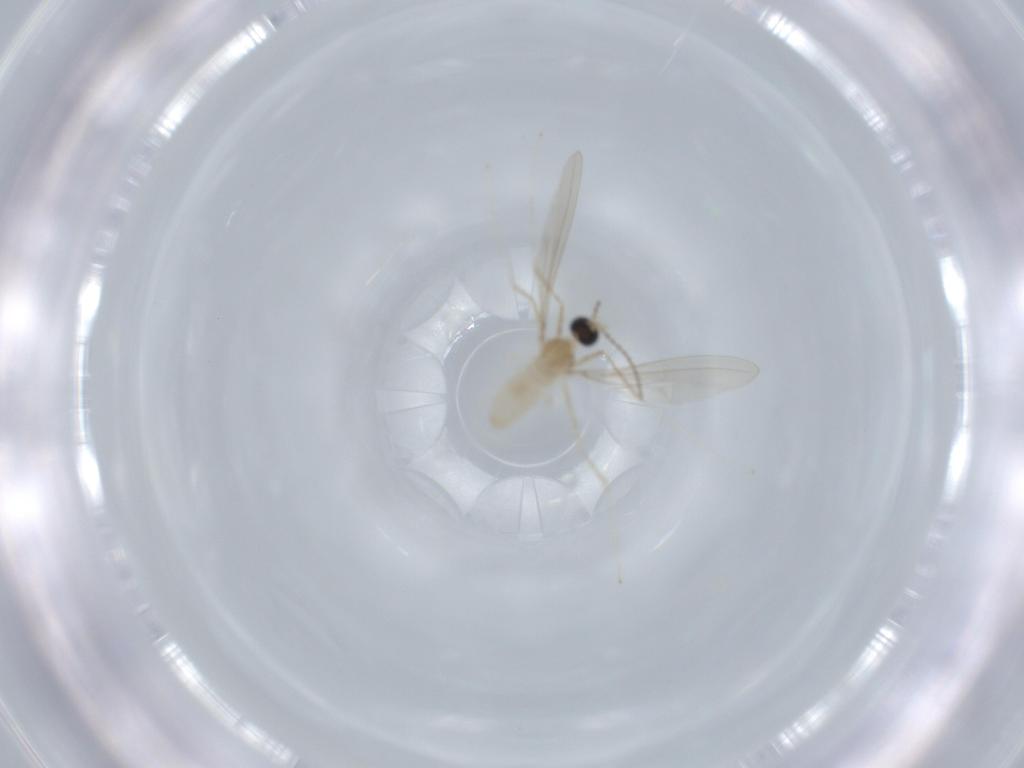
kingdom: Animalia
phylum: Arthropoda
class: Insecta
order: Diptera
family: Cecidomyiidae
